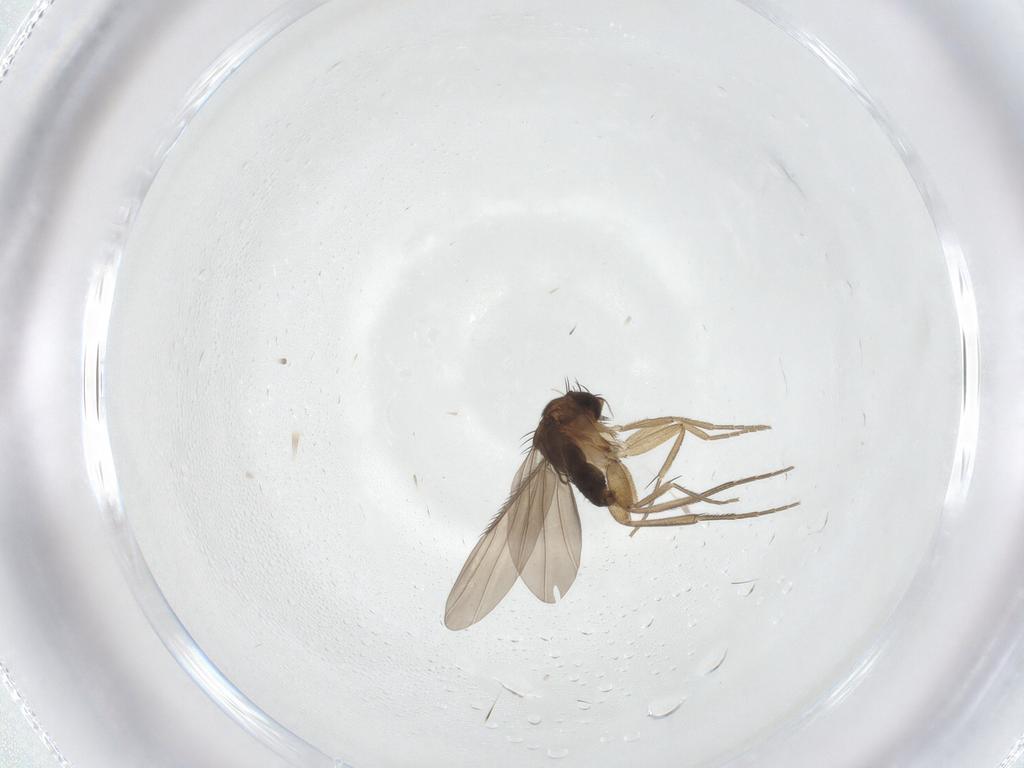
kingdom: Animalia
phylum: Arthropoda
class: Insecta
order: Diptera
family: Phoridae
